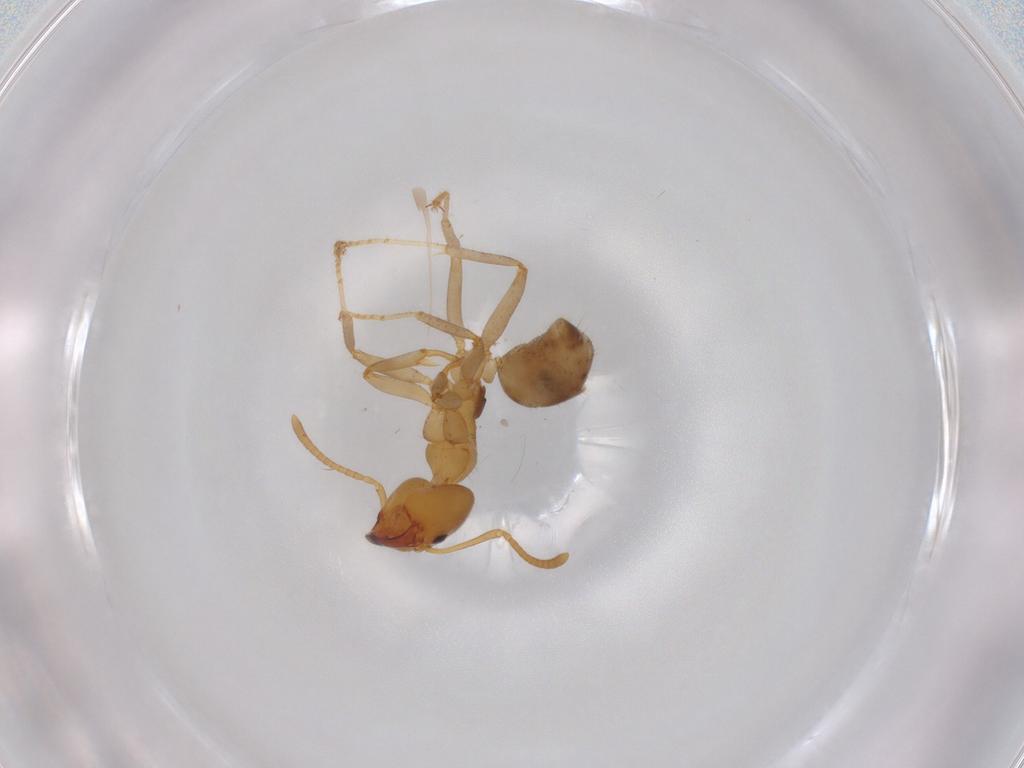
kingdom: Animalia
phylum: Arthropoda
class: Insecta
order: Hymenoptera
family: Formicidae
